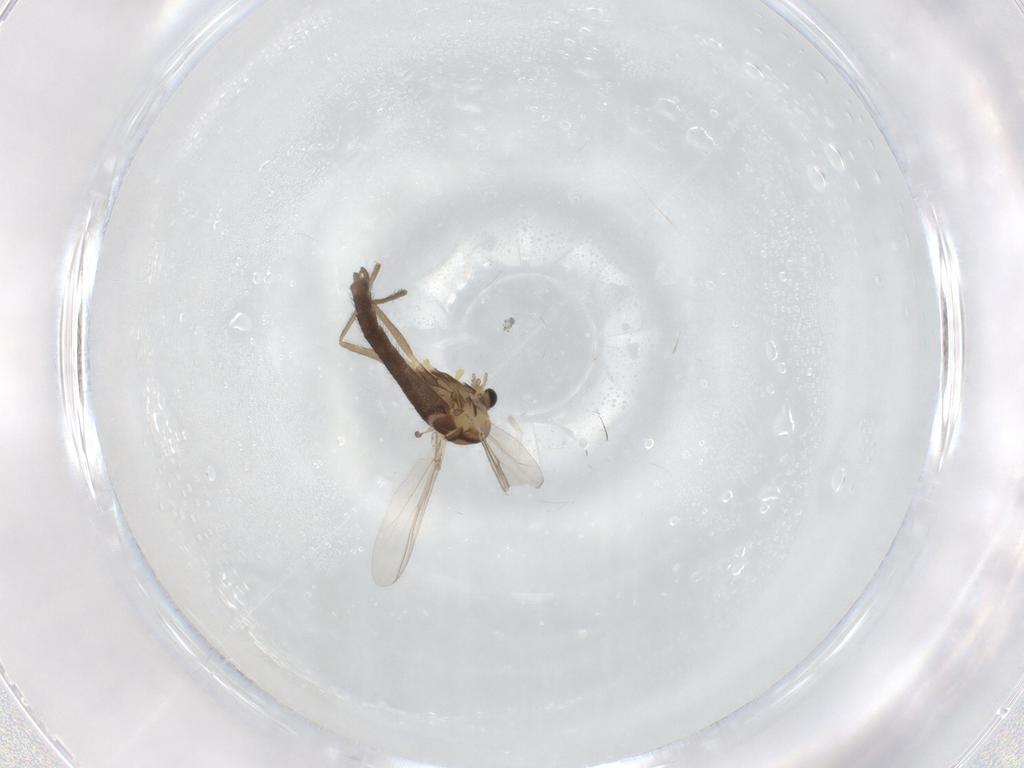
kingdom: Animalia
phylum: Arthropoda
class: Insecta
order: Diptera
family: Chironomidae
